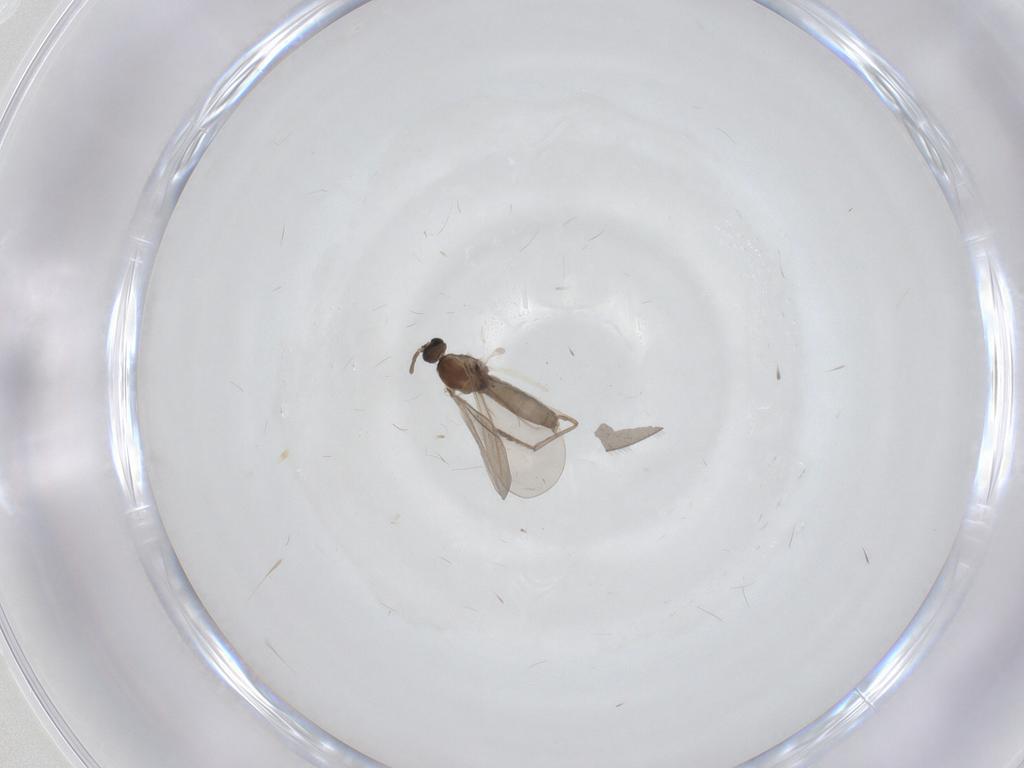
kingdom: Animalia
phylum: Arthropoda
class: Insecta
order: Diptera
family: Cecidomyiidae
